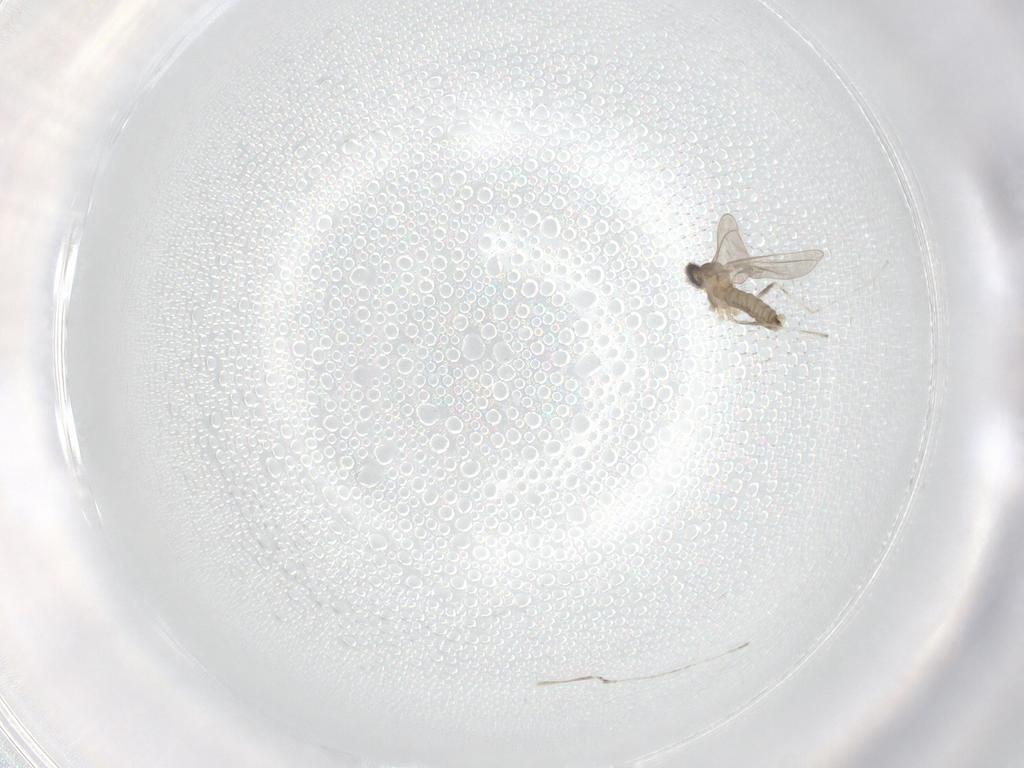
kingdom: Animalia
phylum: Arthropoda
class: Insecta
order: Diptera
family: Cecidomyiidae
